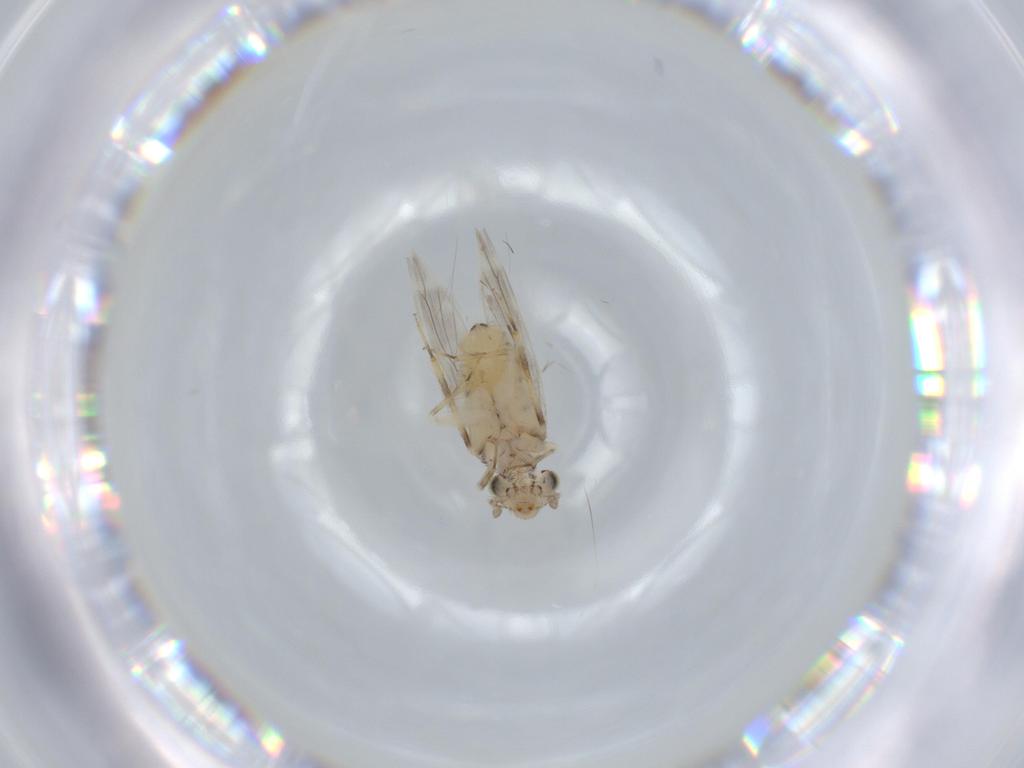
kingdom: Animalia
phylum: Arthropoda
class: Insecta
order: Psocodea
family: Lepidopsocidae
